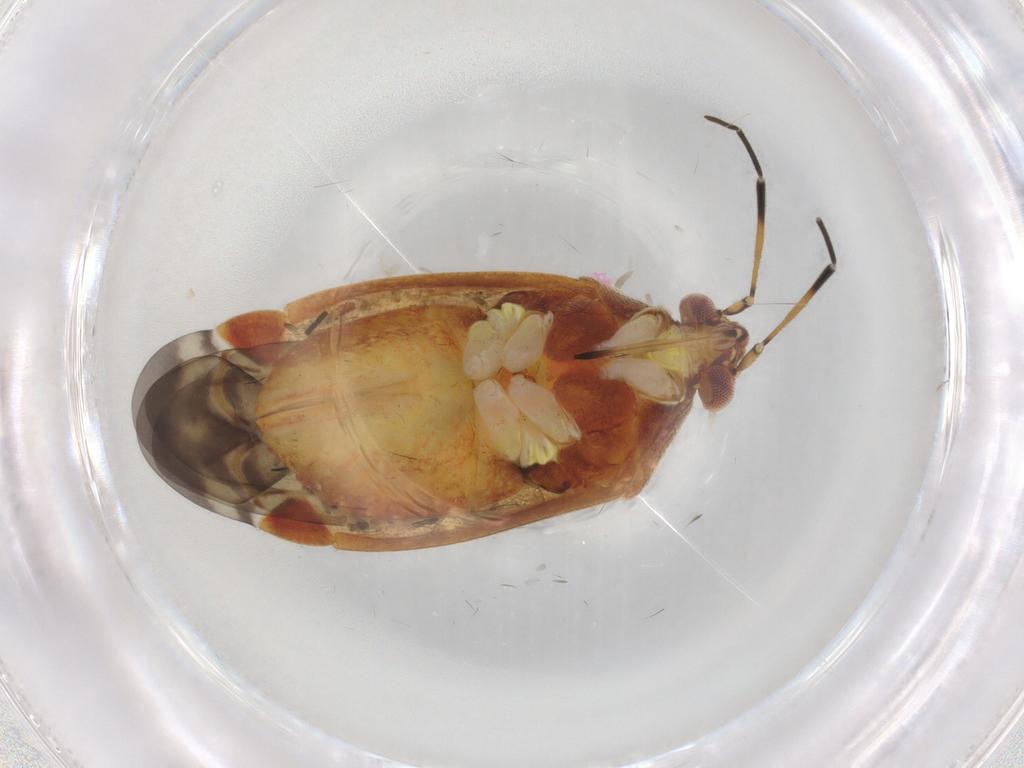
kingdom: Animalia
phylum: Arthropoda
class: Insecta
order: Hemiptera
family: Miridae
